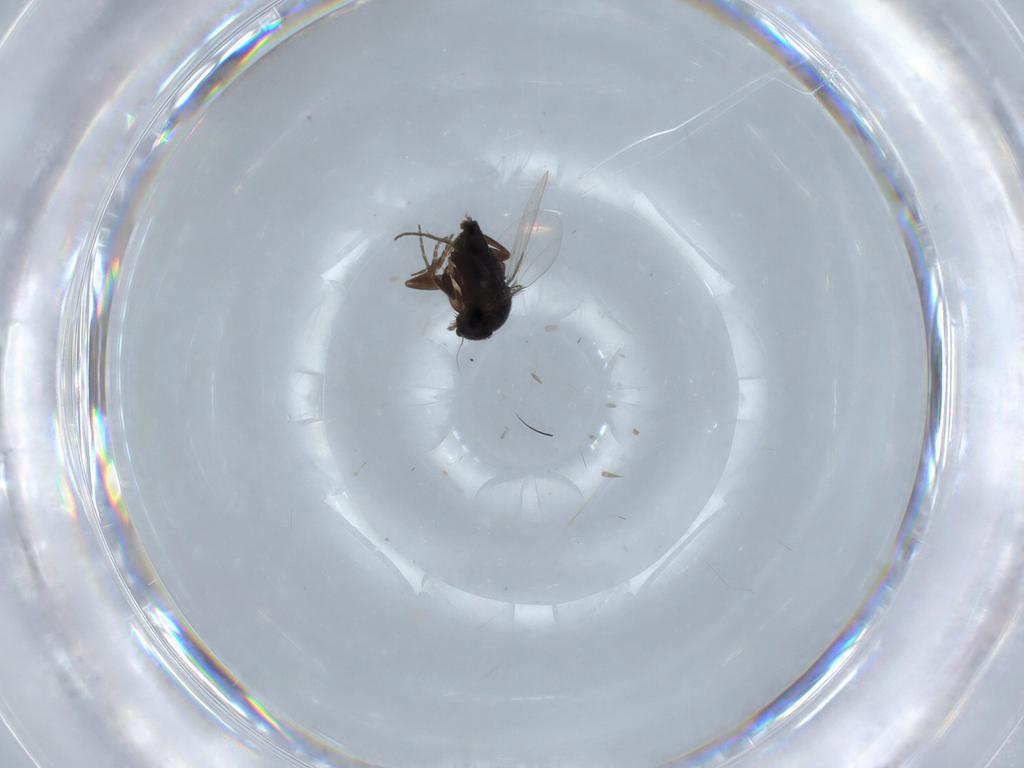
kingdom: Animalia
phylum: Arthropoda
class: Insecta
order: Diptera
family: Phoridae
